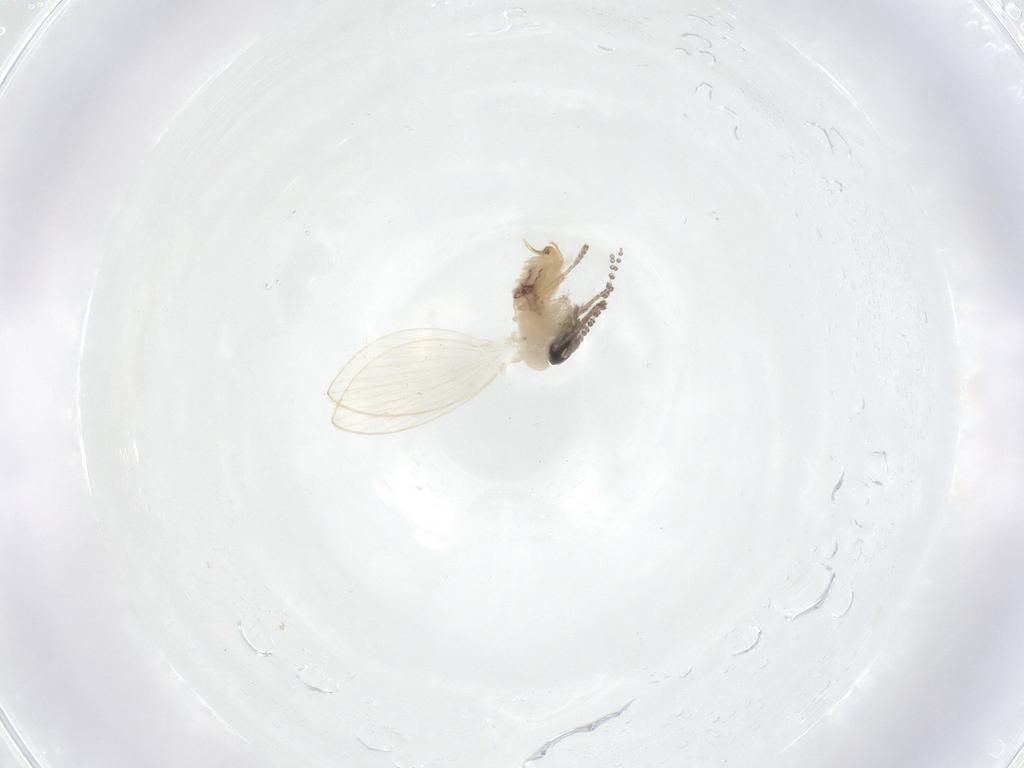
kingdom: Animalia
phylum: Arthropoda
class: Insecta
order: Diptera
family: Psychodidae
